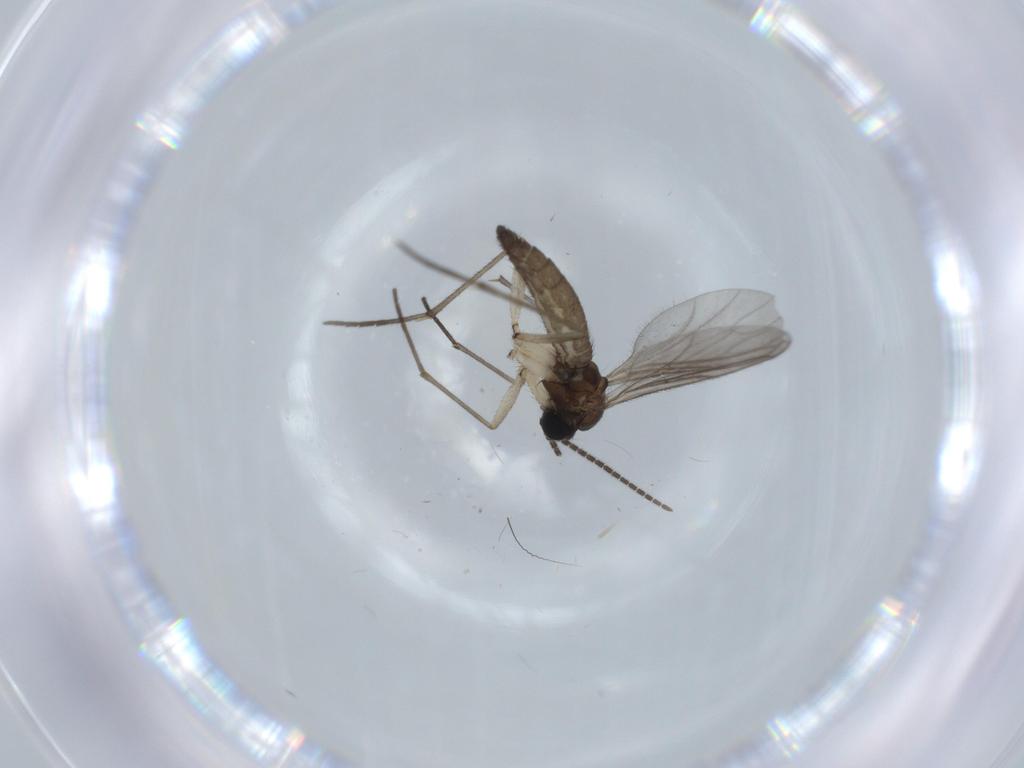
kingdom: Animalia
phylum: Arthropoda
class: Insecta
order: Diptera
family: Sciaridae
